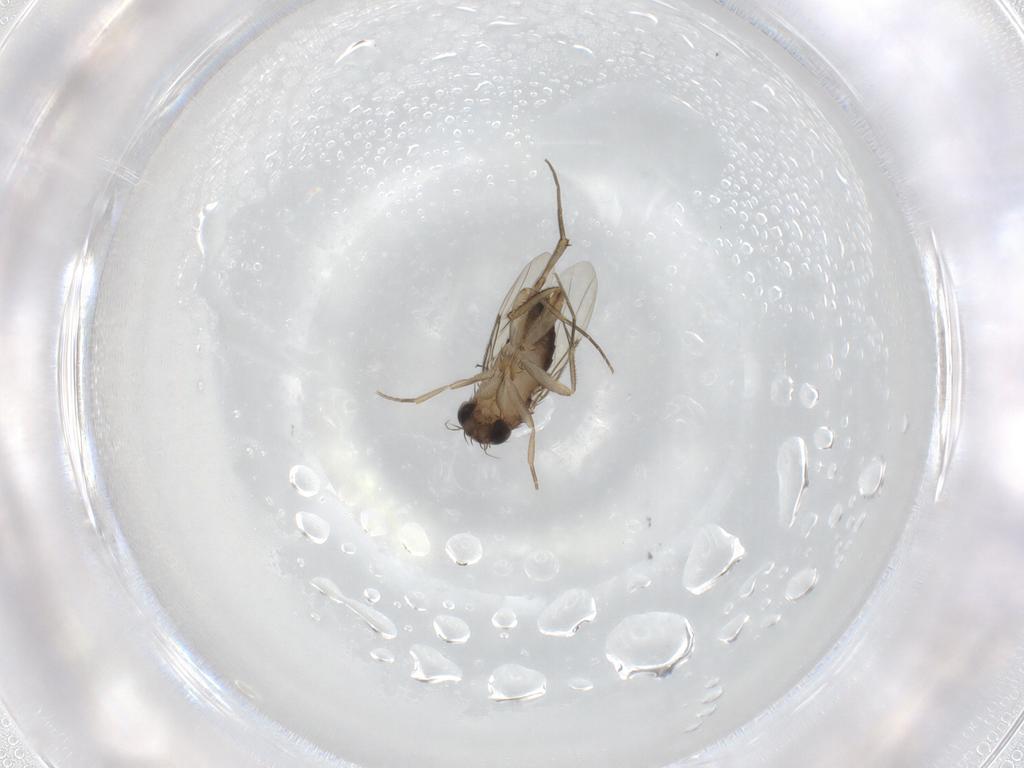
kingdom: Animalia
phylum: Arthropoda
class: Insecta
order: Diptera
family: Phoridae
